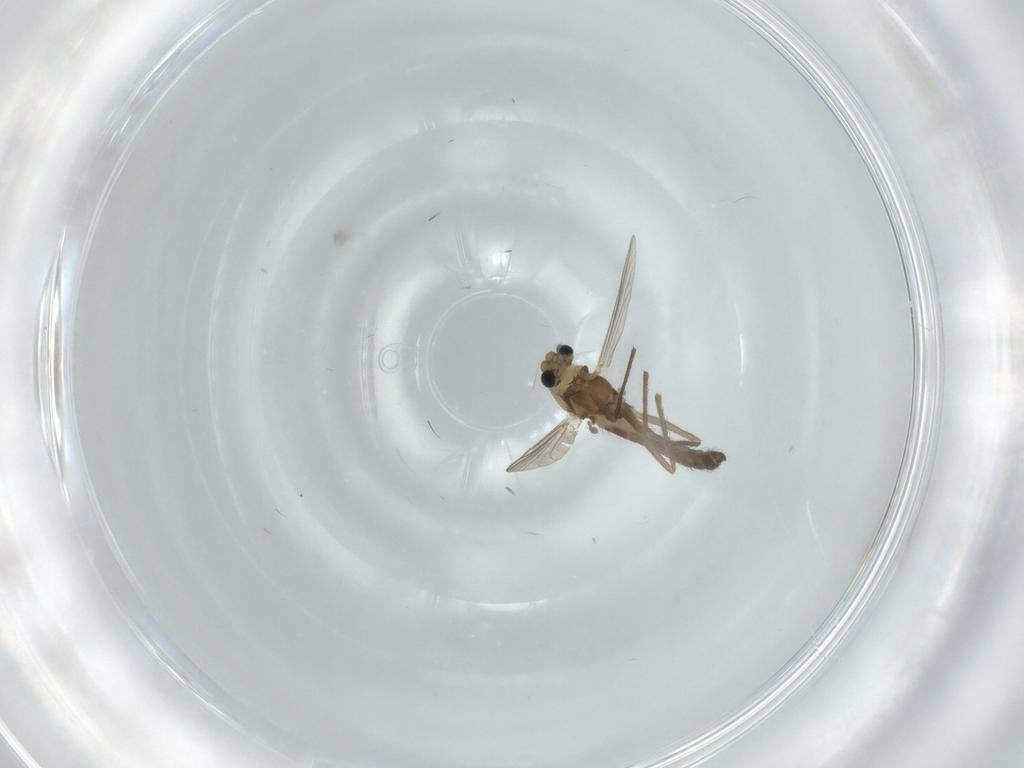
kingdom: Animalia
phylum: Arthropoda
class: Insecta
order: Diptera
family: Chironomidae
